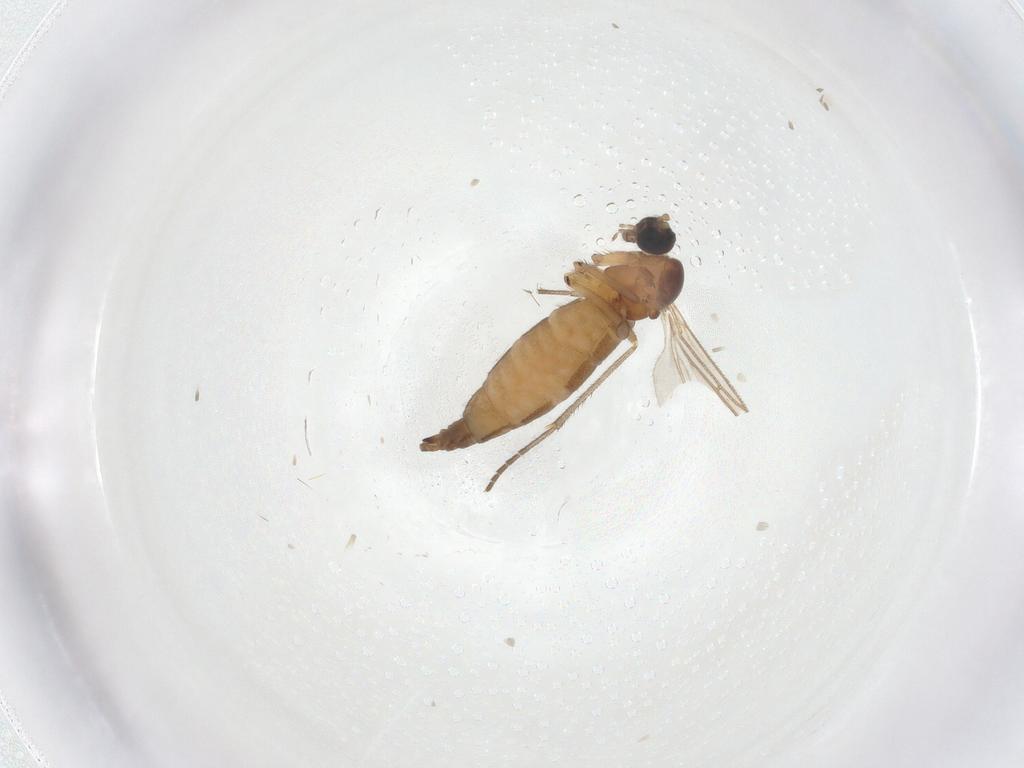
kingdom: Animalia
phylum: Arthropoda
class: Insecta
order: Diptera
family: Sciaridae
